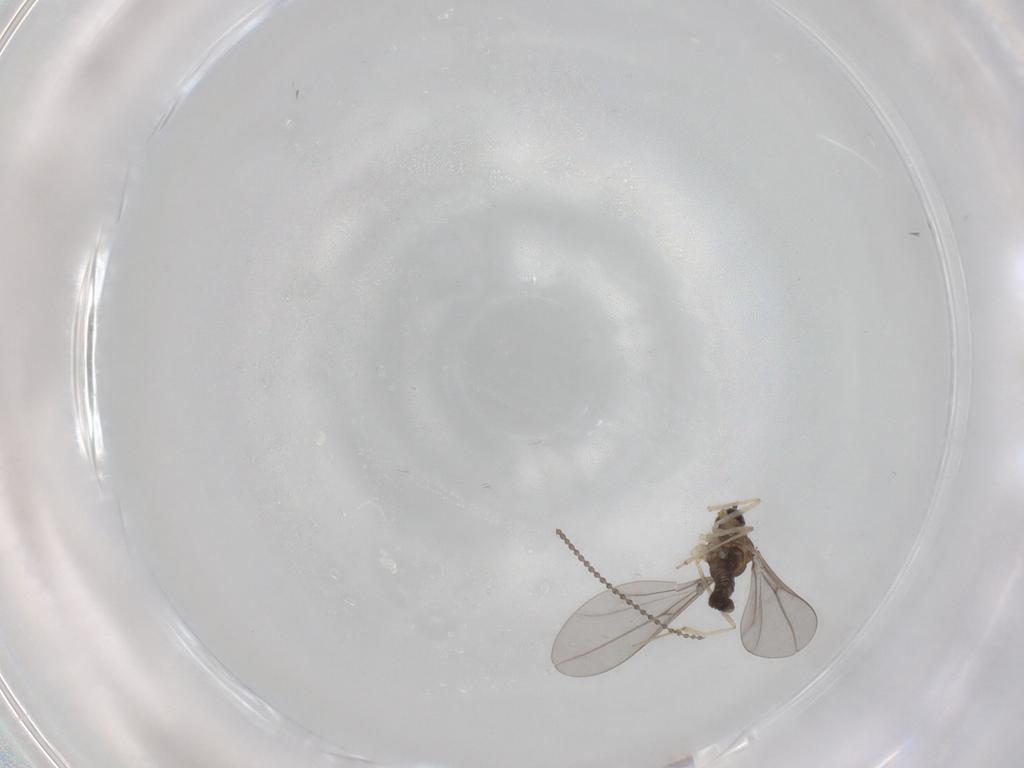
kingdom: Animalia
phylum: Arthropoda
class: Insecta
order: Diptera
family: Cecidomyiidae
